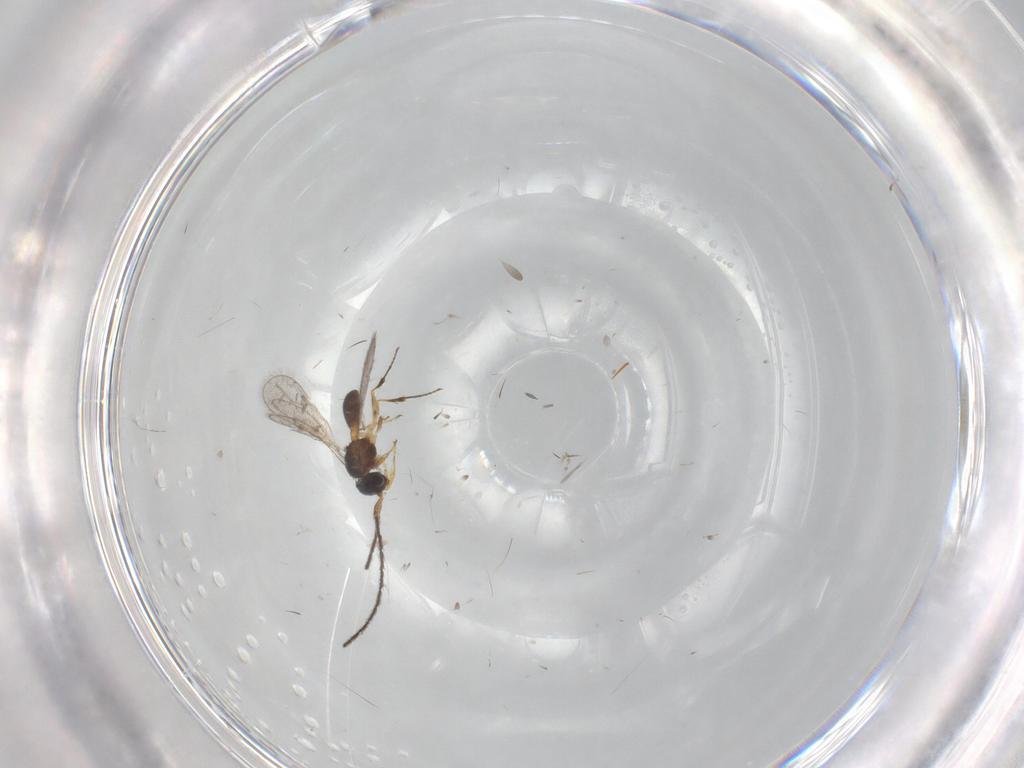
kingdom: Animalia
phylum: Arthropoda
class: Insecta
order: Hymenoptera
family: Scelionidae
